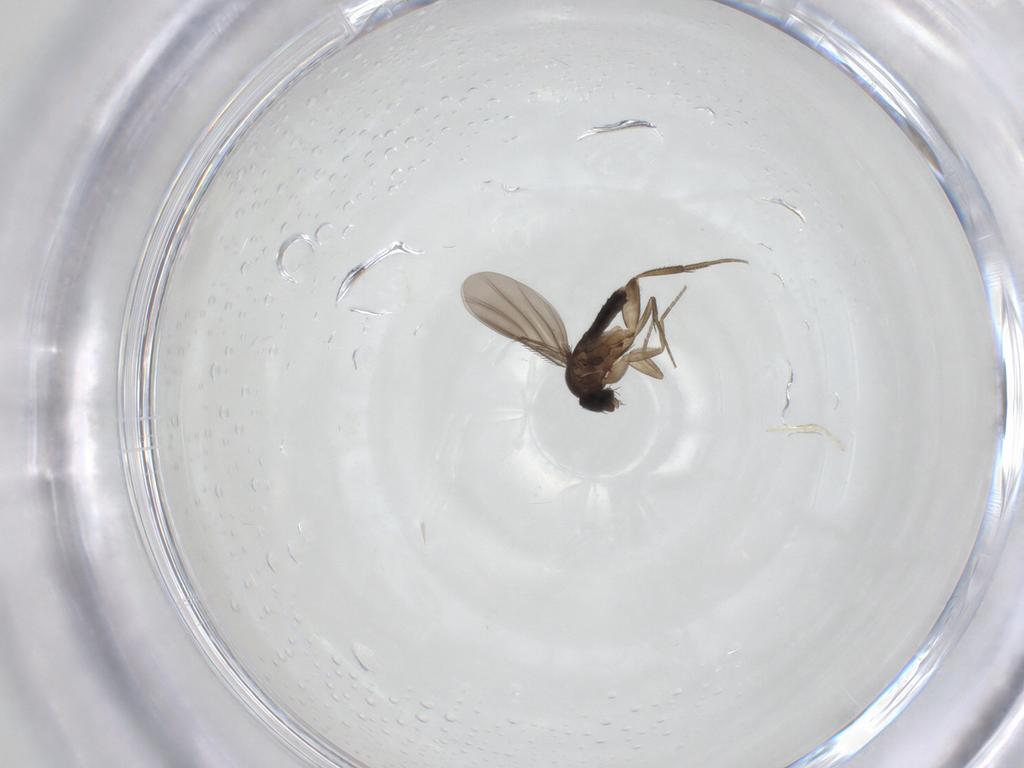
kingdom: Animalia
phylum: Arthropoda
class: Insecta
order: Diptera
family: Phoridae
